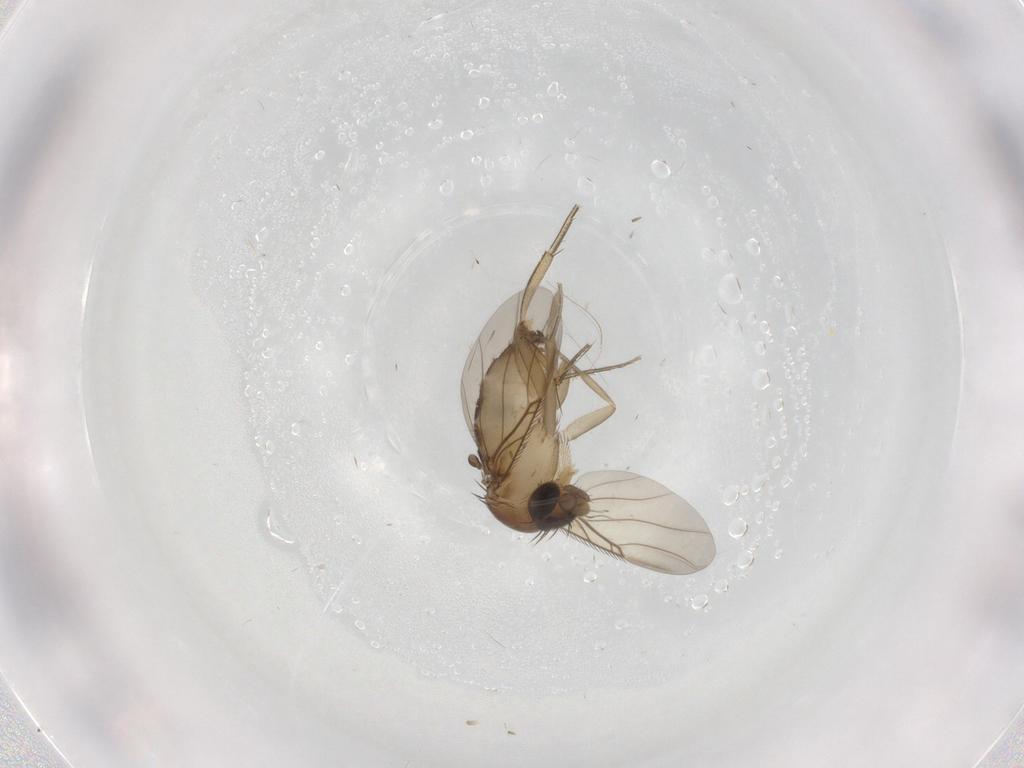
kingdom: Animalia
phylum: Arthropoda
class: Insecta
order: Diptera
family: Phoridae
